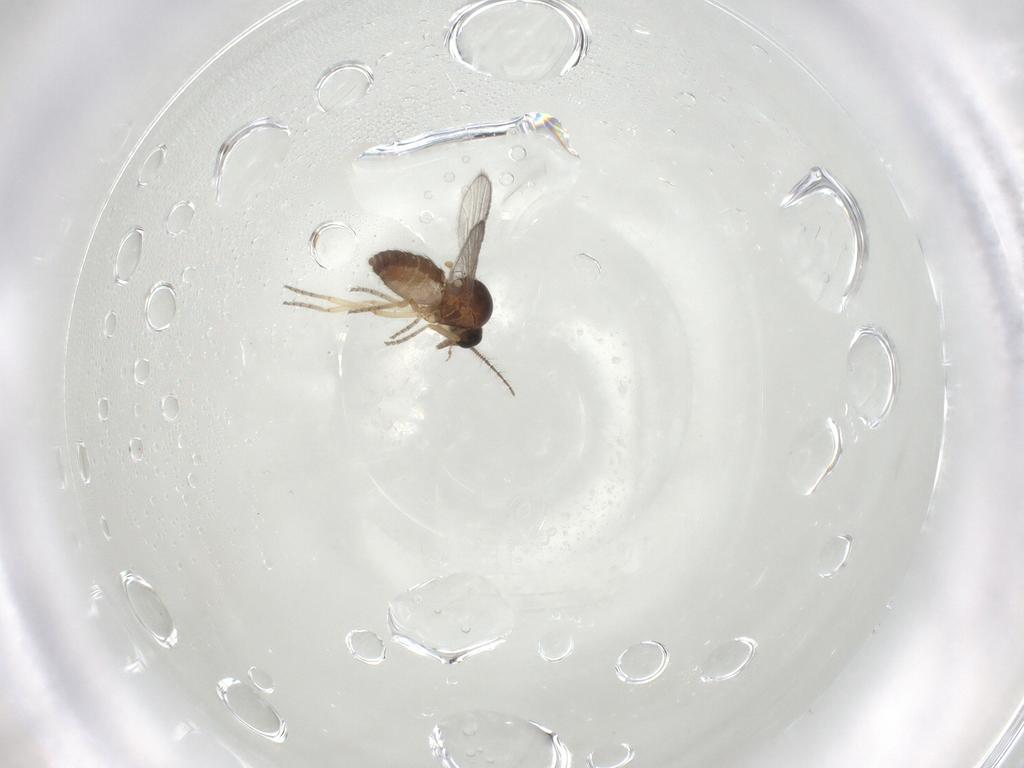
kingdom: Animalia
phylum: Arthropoda
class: Insecta
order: Diptera
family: Ceratopogonidae
